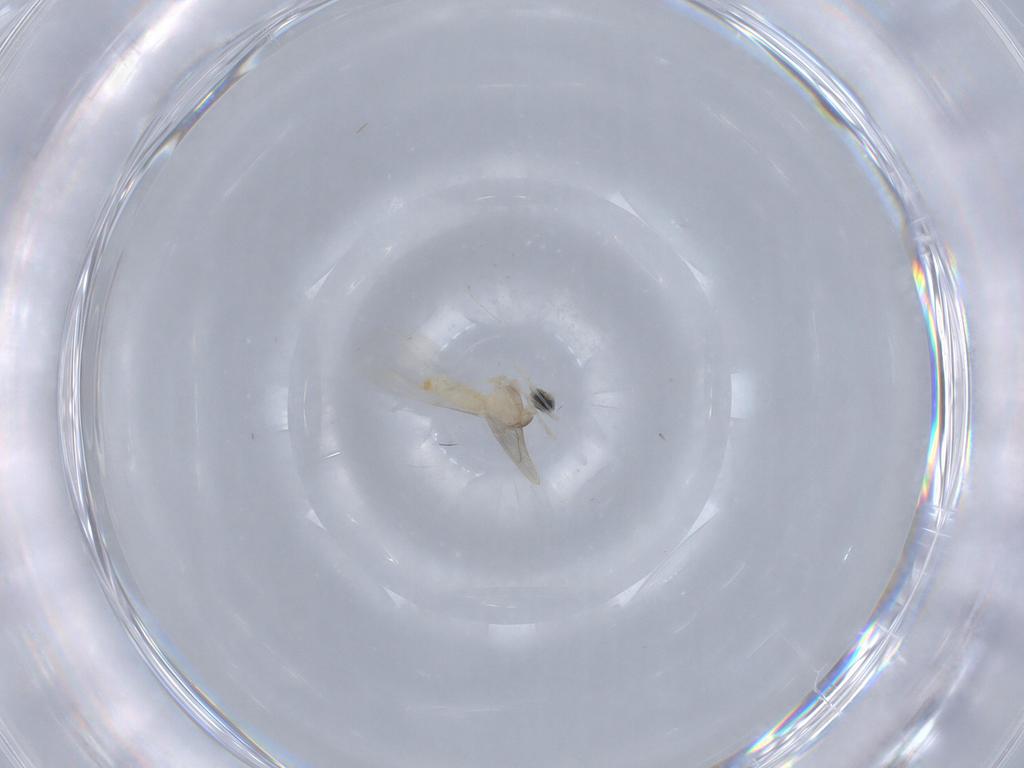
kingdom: Animalia
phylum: Arthropoda
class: Insecta
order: Diptera
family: Cecidomyiidae
